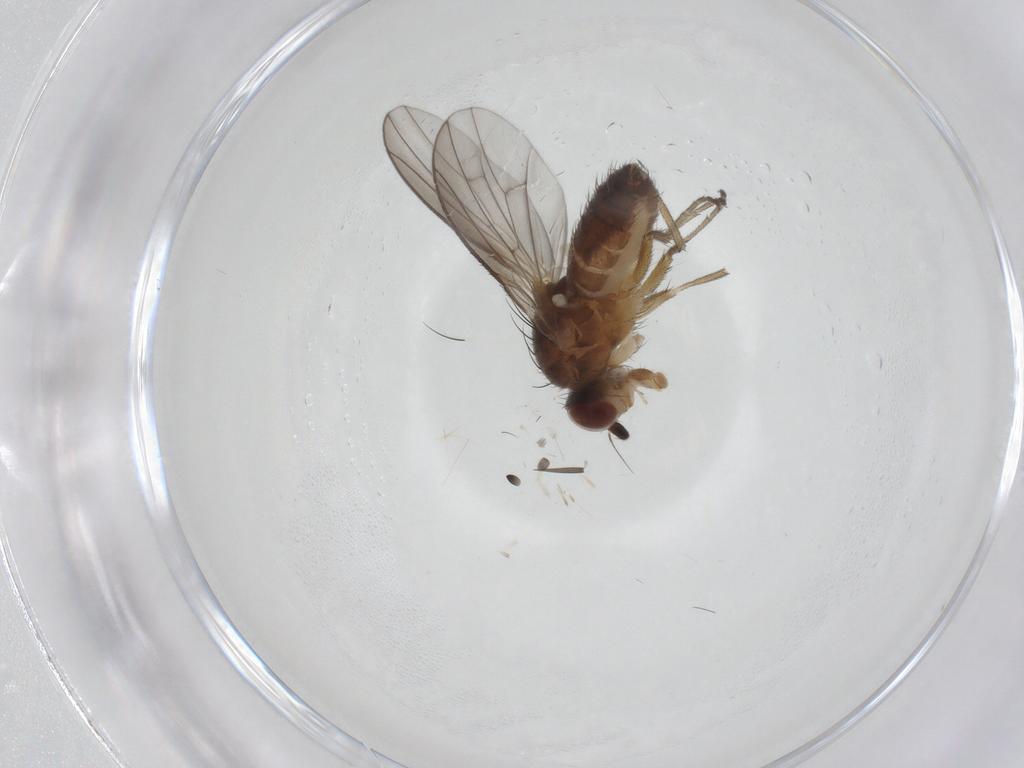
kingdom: Animalia
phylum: Arthropoda
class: Insecta
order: Diptera
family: Heleomyzidae
